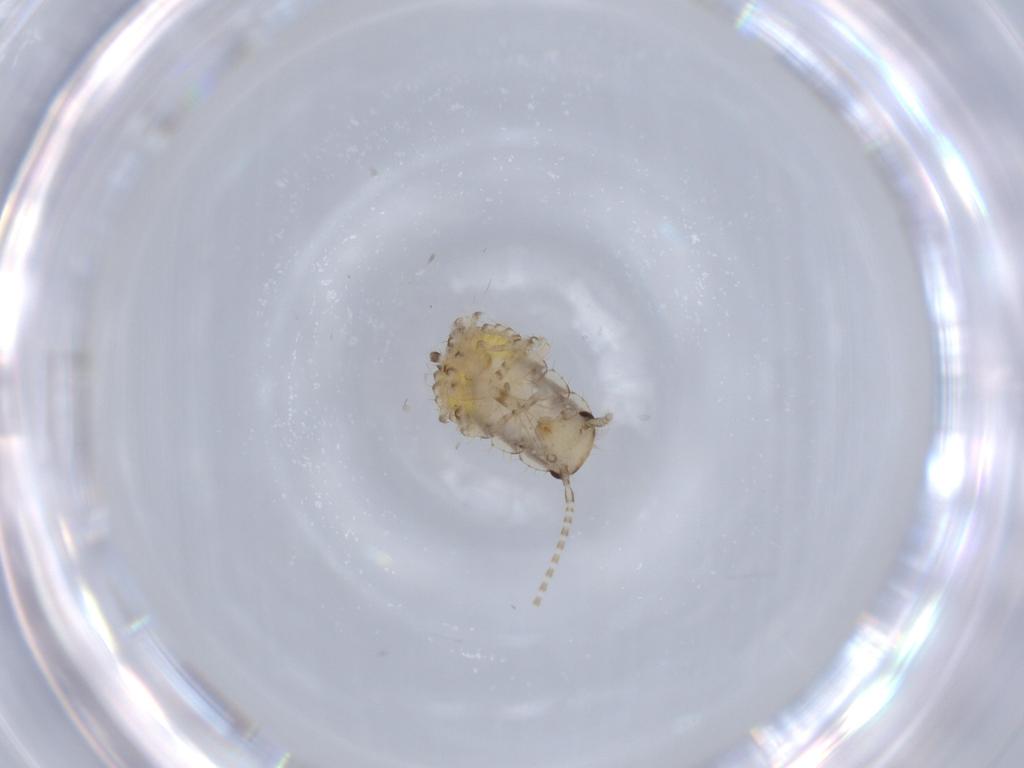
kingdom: Animalia
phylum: Arthropoda
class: Insecta
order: Blattodea
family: Ectobiidae
